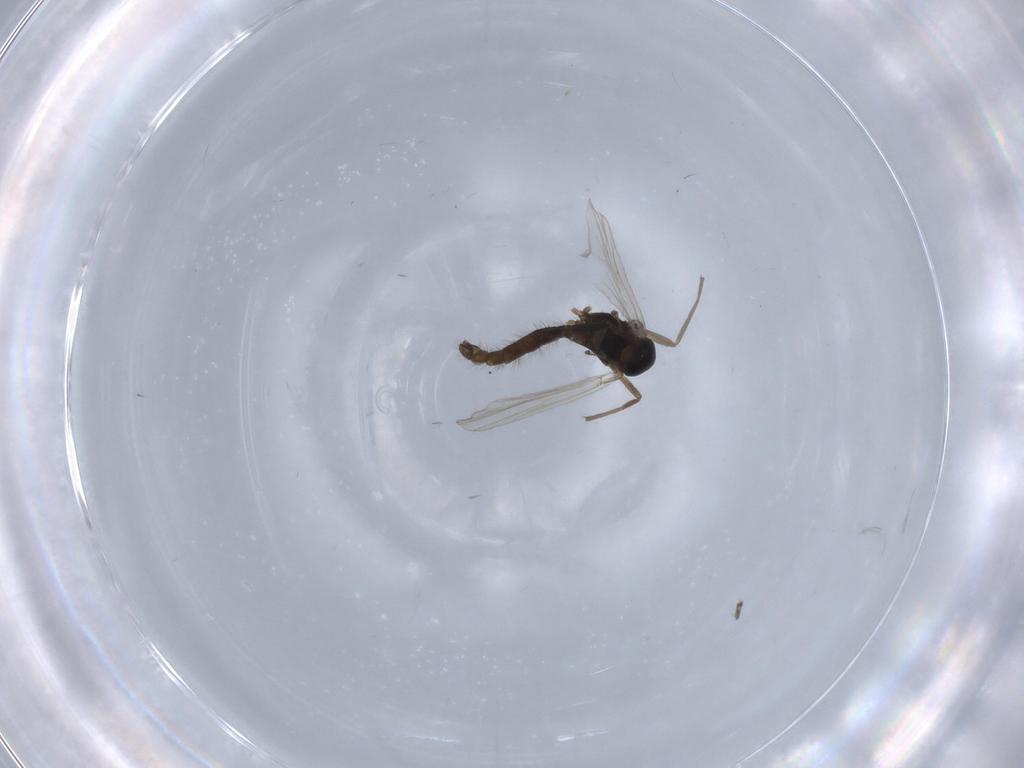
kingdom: Animalia
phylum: Arthropoda
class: Insecta
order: Diptera
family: Chironomidae
